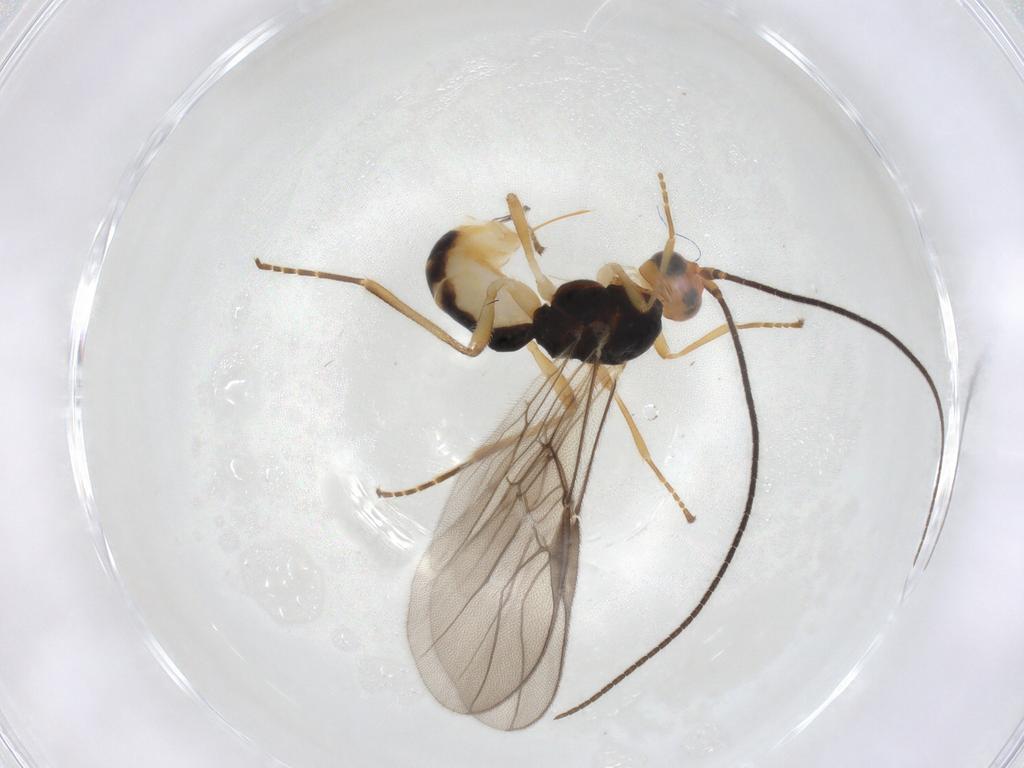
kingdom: Animalia
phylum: Arthropoda
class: Insecta
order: Hymenoptera
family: Braconidae
